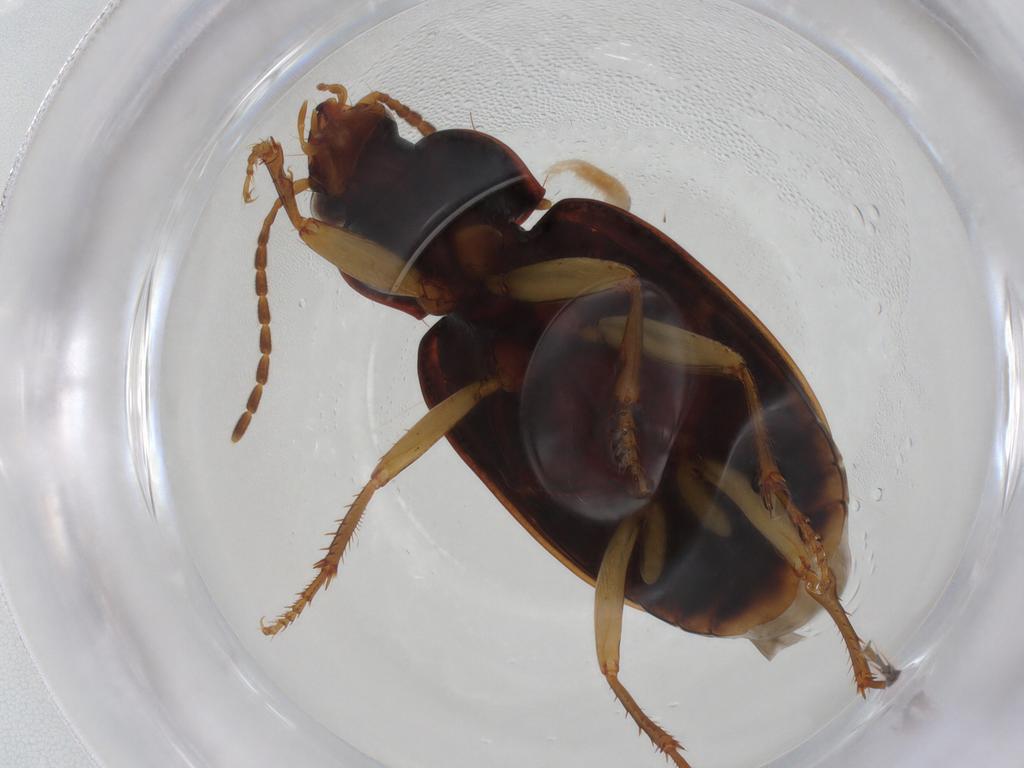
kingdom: Animalia
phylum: Arthropoda
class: Insecta
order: Coleoptera
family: Carabidae
